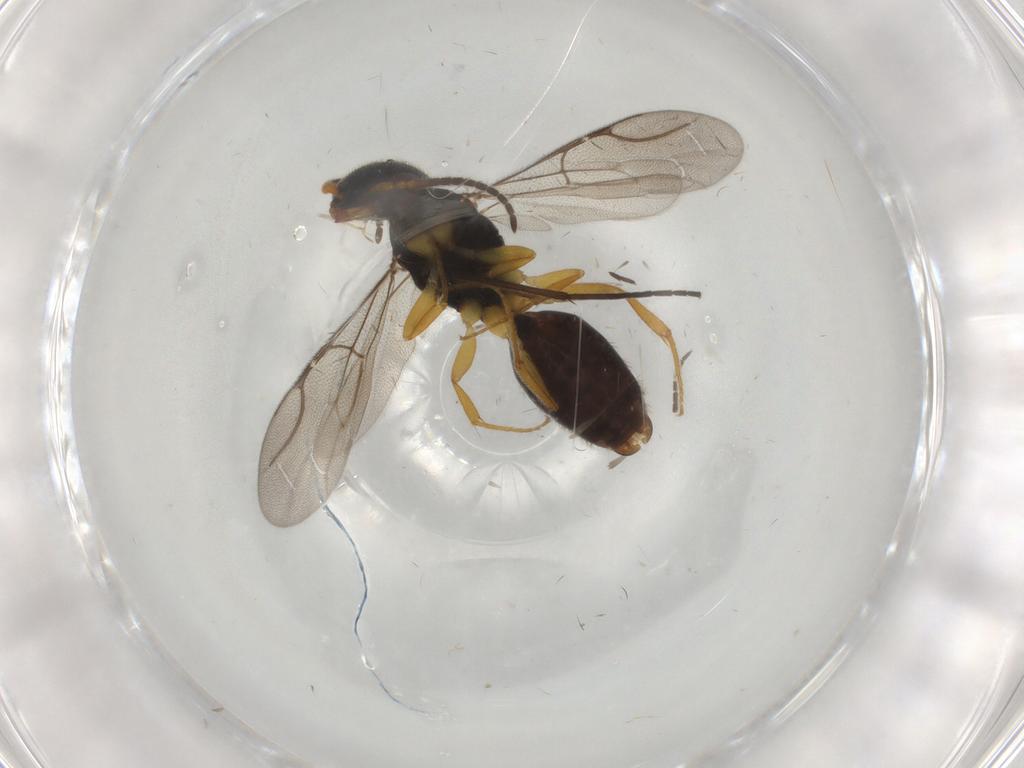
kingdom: Animalia
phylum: Arthropoda
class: Insecta
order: Hymenoptera
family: Bethylidae
